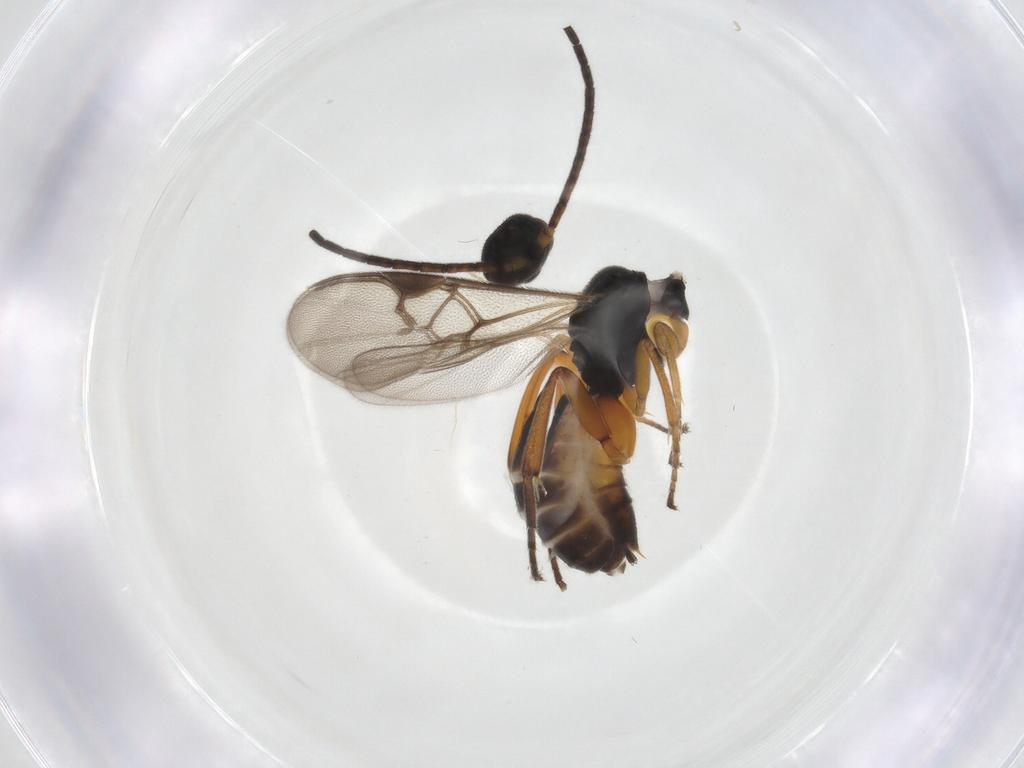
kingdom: Animalia
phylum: Arthropoda
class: Insecta
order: Hymenoptera
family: Braconidae
